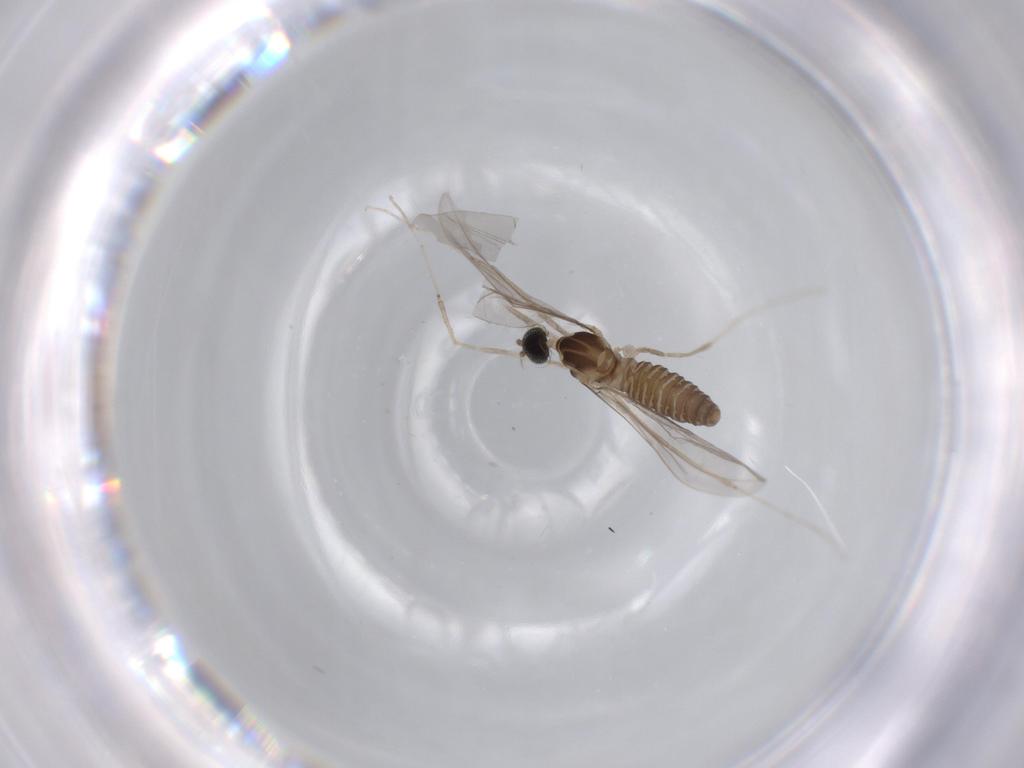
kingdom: Animalia
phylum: Arthropoda
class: Insecta
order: Diptera
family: Cecidomyiidae
